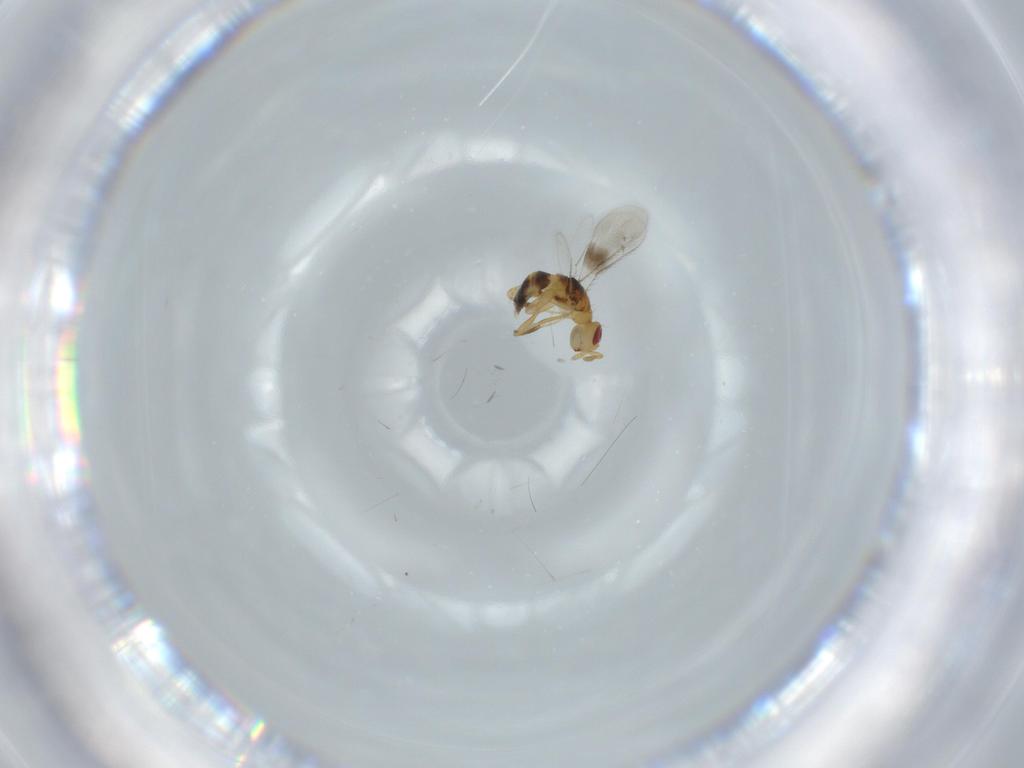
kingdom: Animalia
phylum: Arthropoda
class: Insecta
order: Hymenoptera
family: Torymidae
